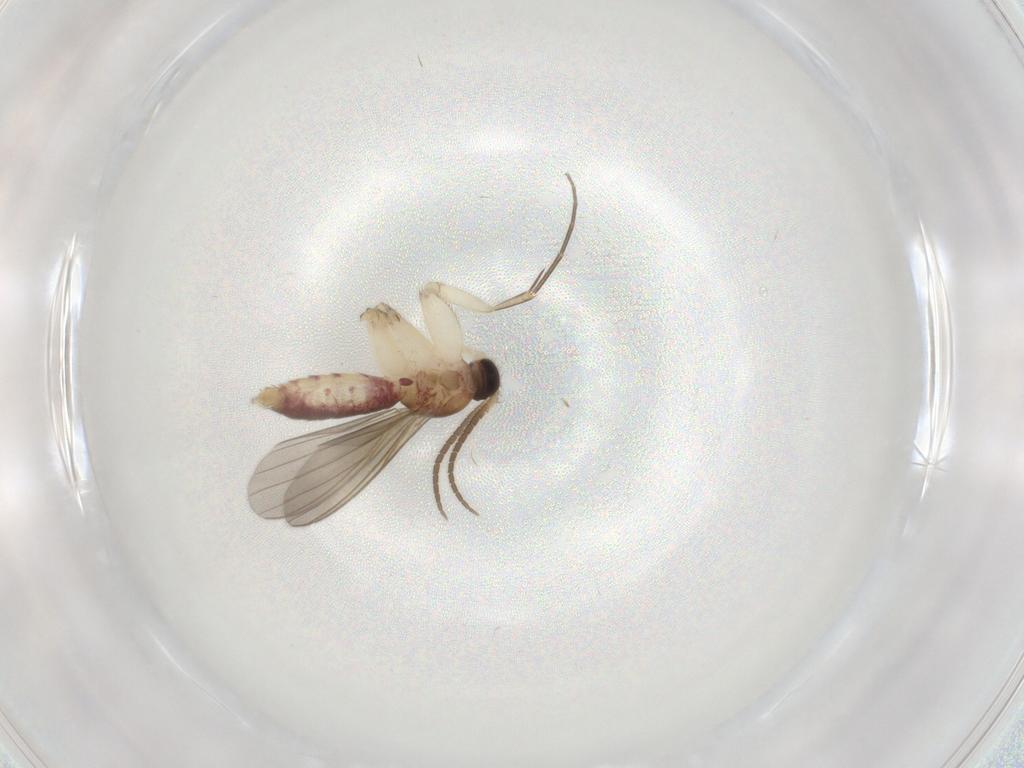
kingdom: Animalia
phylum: Arthropoda
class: Insecta
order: Diptera
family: Mycetophilidae
